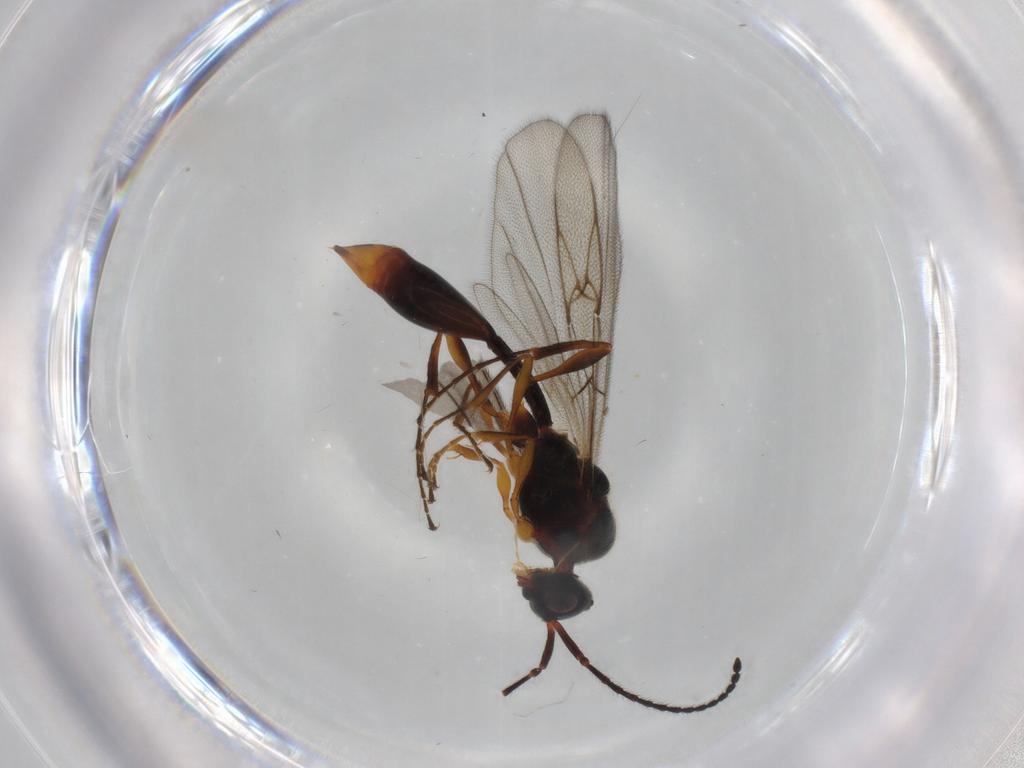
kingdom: Animalia
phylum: Arthropoda
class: Insecta
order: Hymenoptera
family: Diapriidae
